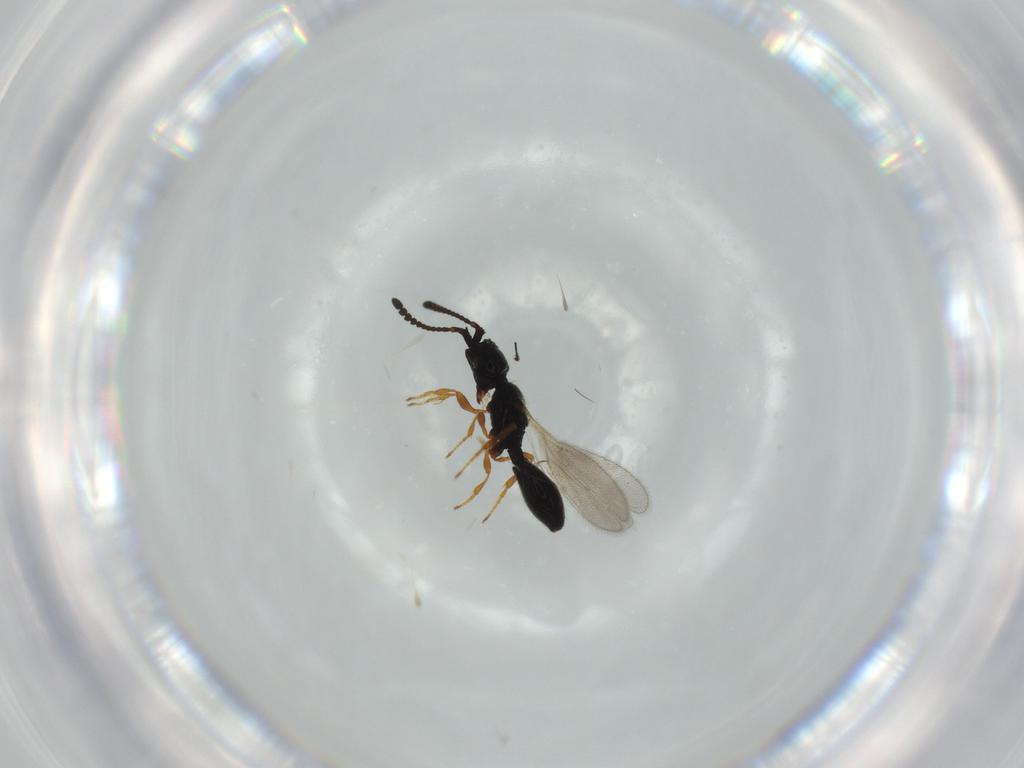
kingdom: Animalia
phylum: Arthropoda
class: Insecta
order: Hymenoptera
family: Diapriidae
